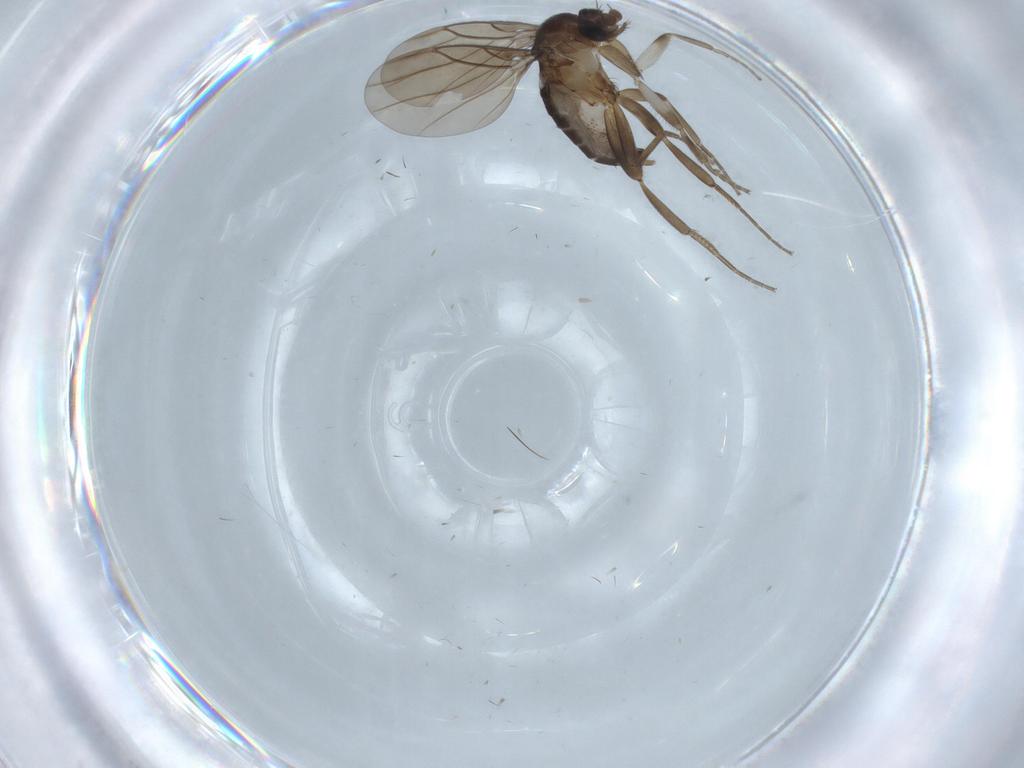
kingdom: Animalia
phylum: Arthropoda
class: Insecta
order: Diptera
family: Chironomidae
